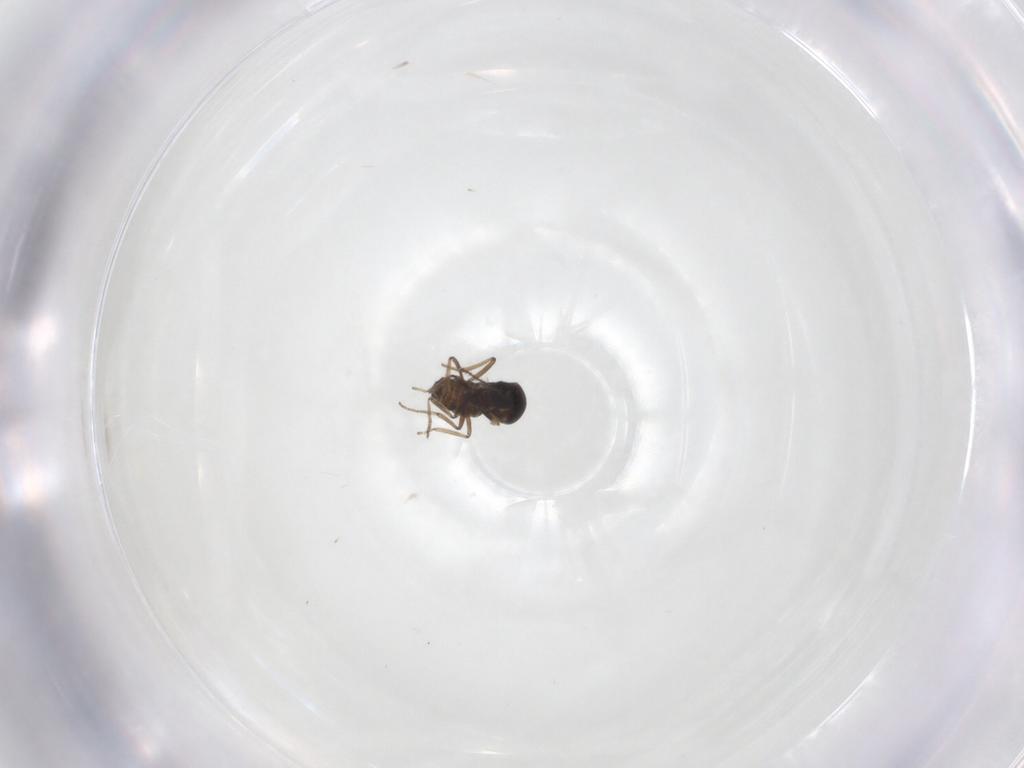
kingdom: Animalia
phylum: Arthropoda
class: Insecta
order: Diptera
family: Ceratopogonidae
